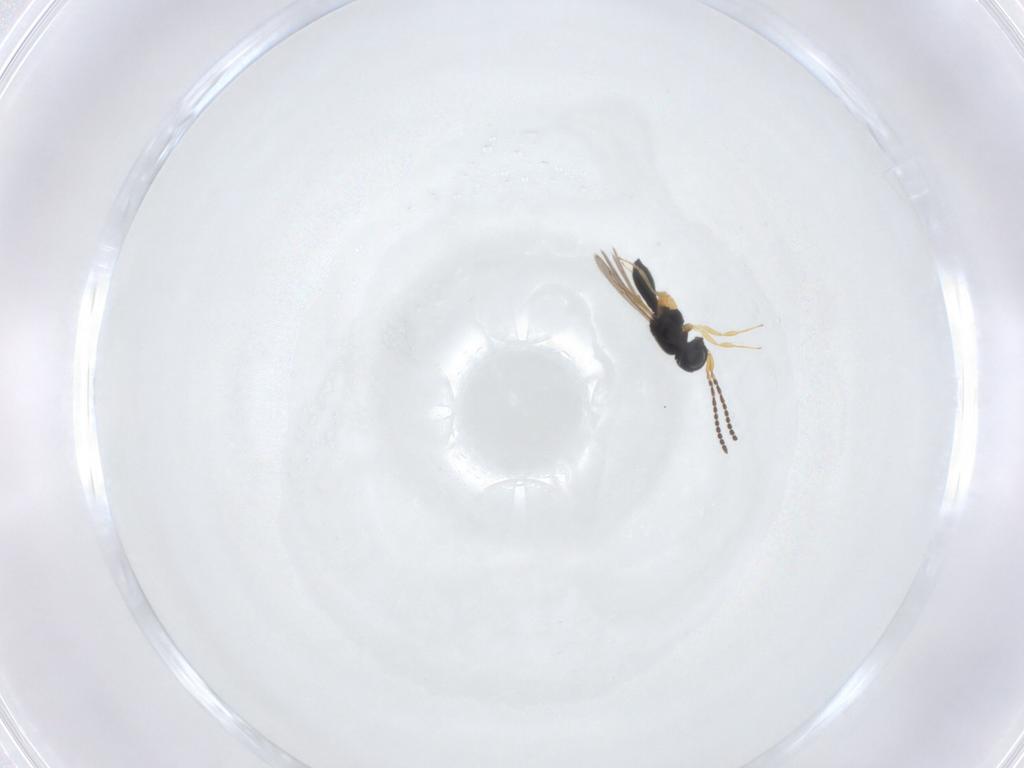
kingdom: Animalia
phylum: Arthropoda
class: Insecta
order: Hymenoptera
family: Scelionidae
